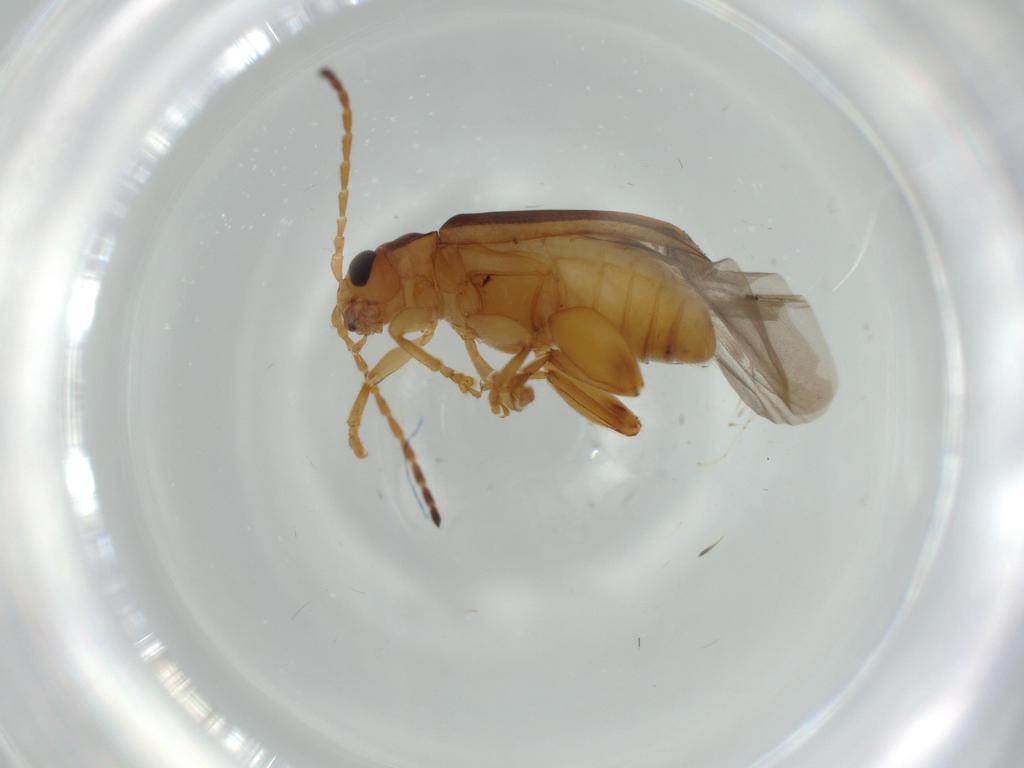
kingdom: Animalia
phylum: Arthropoda
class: Insecta
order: Coleoptera
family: Chrysomelidae
